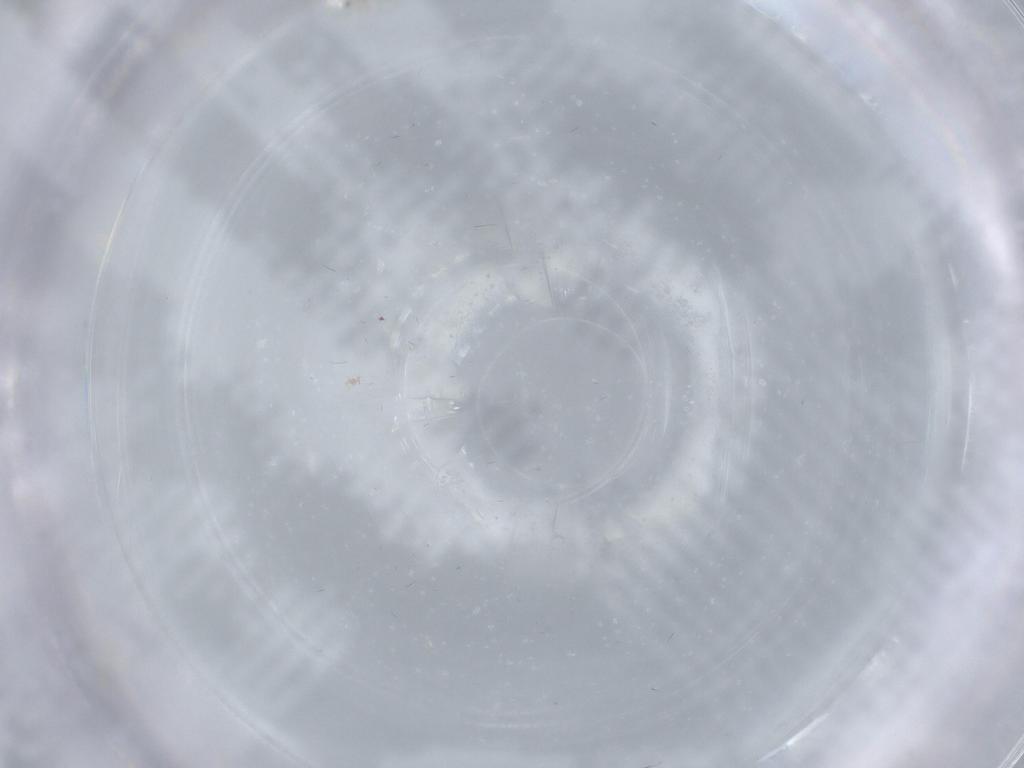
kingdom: Animalia
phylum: Arthropoda
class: Insecta
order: Diptera
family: Cecidomyiidae
